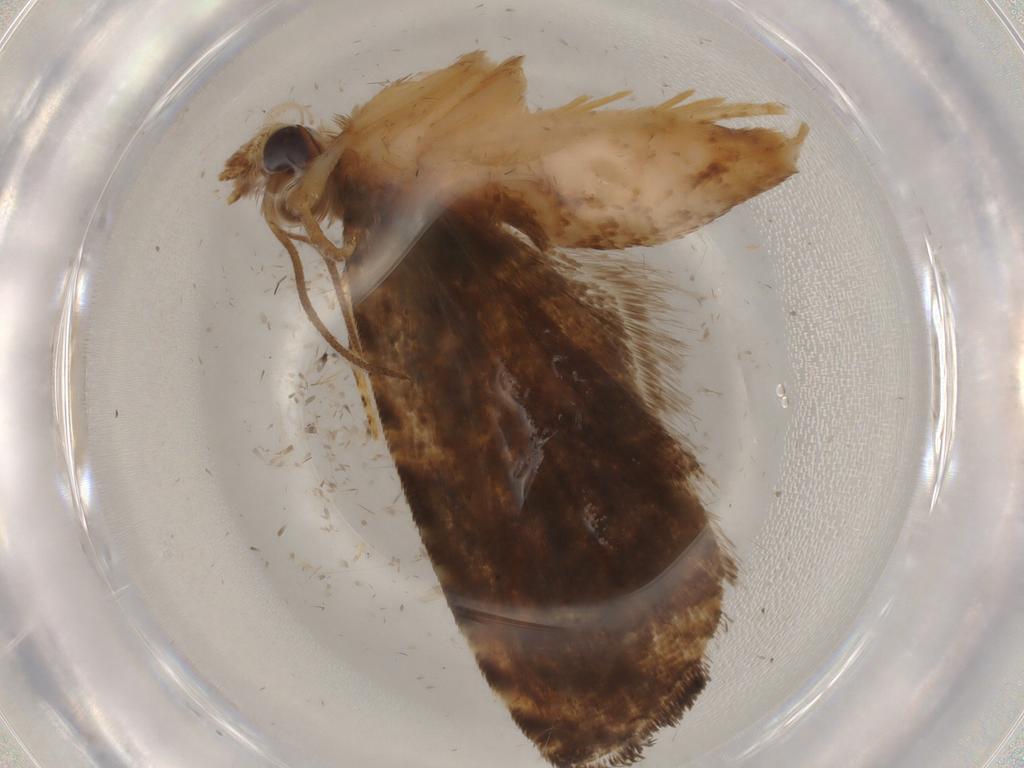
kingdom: Animalia
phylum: Arthropoda
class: Insecta
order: Lepidoptera
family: Tortricidae
